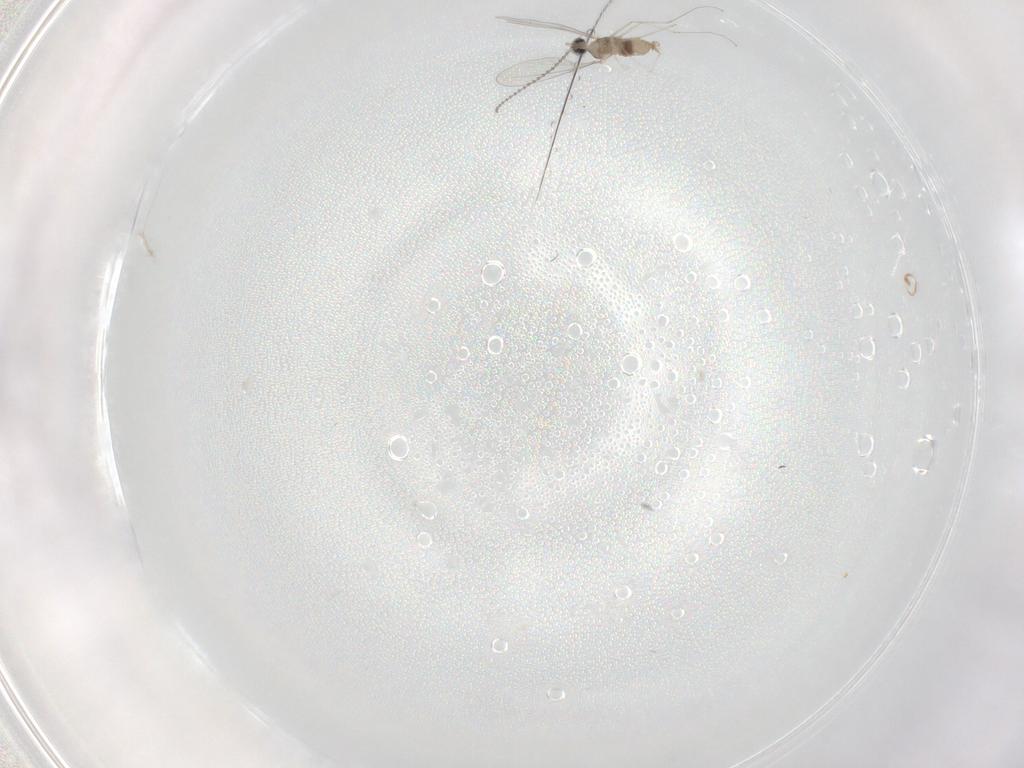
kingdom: Animalia
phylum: Arthropoda
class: Insecta
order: Diptera
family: Cecidomyiidae
